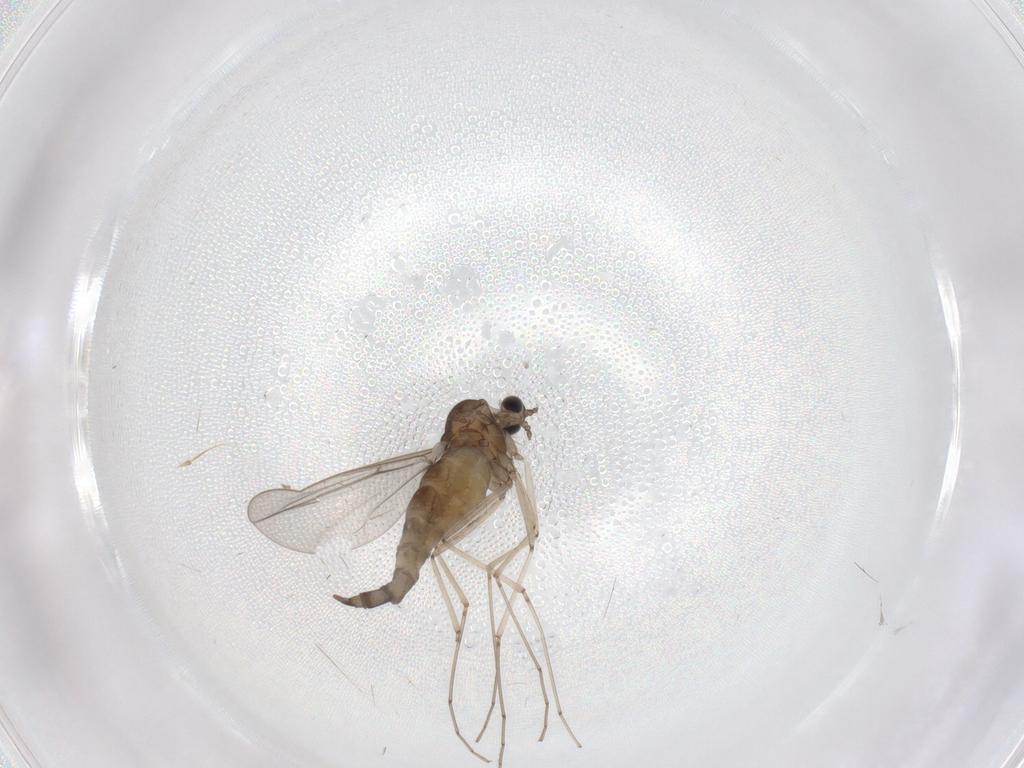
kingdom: Animalia
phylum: Arthropoda
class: Insecta
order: Diptera
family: Cecidomyiidae
